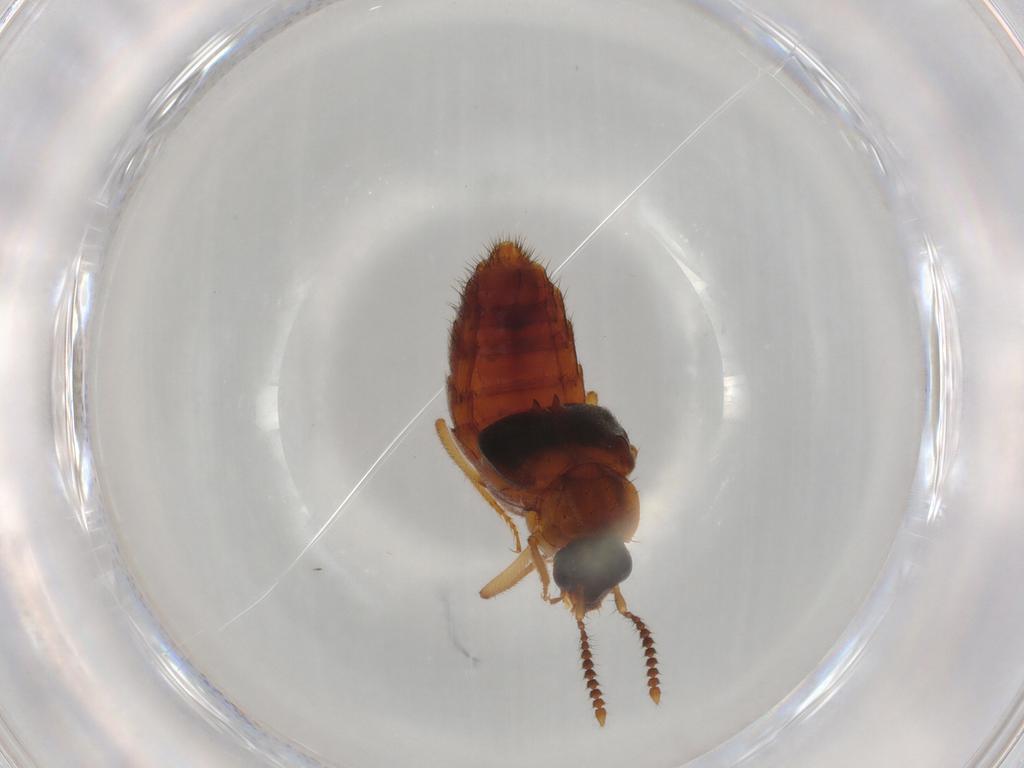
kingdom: Animalia
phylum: Arthropoda
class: Insecta
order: Coleoptera
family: Staphylinidae
